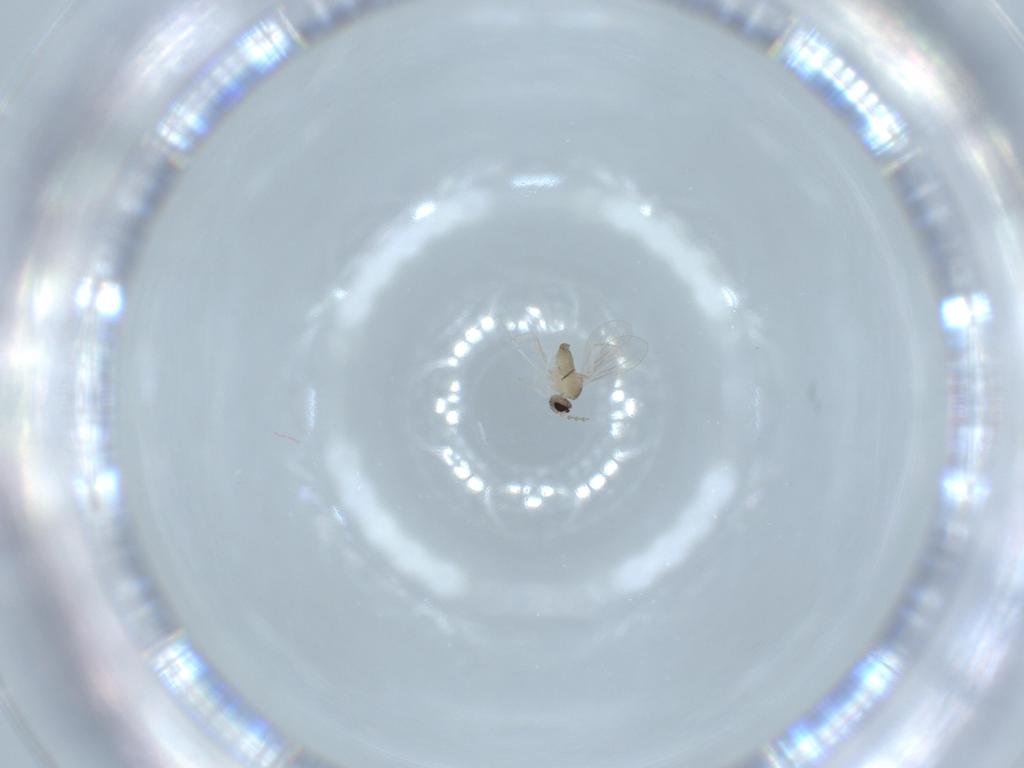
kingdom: Animalia
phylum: Arthropoda
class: Insecta
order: Diptera
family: Cecidomyiidae
